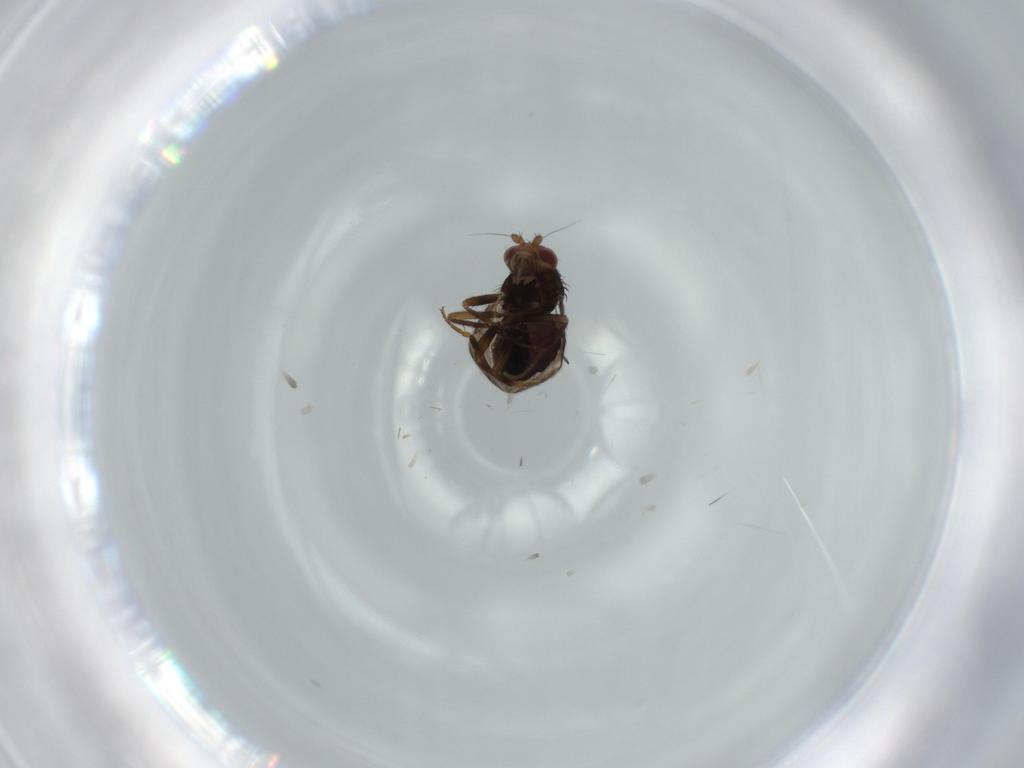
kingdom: Animalia
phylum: Arthropoda
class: Insecta
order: Diptera
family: Sphaeroceridae
